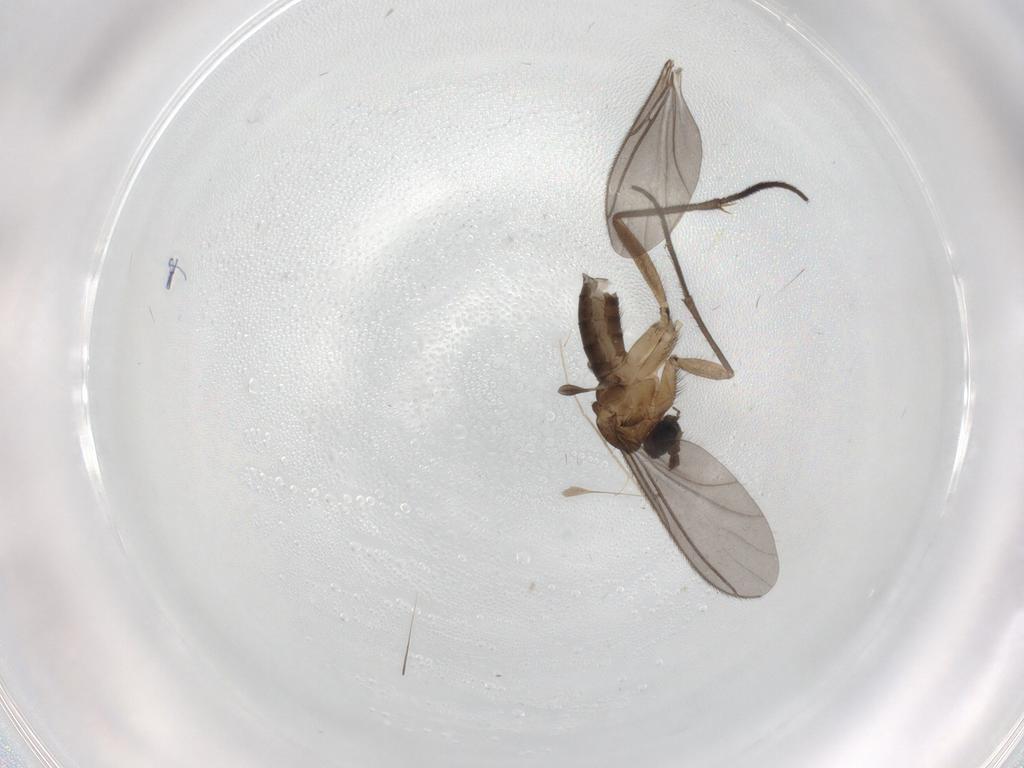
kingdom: Animalia
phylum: Arthropoda
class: Insecta
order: Diptera
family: Sciaridae
